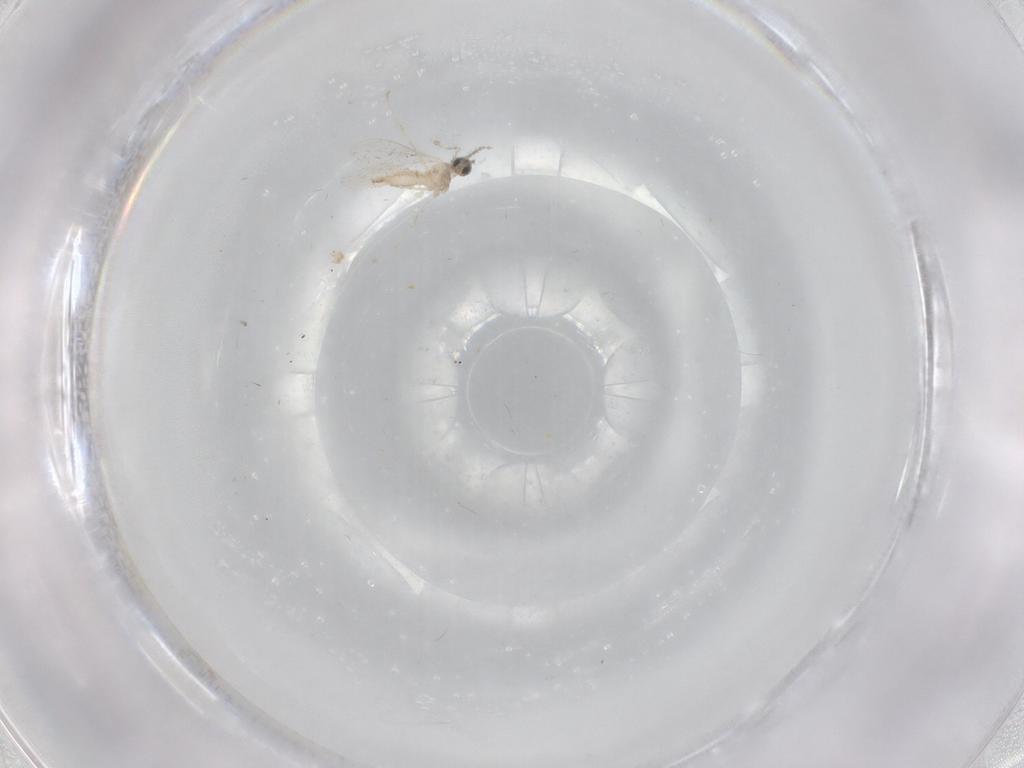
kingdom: Animalia
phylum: Arthropoda
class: Insecta
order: Diptera
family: Cecidomyiidae
